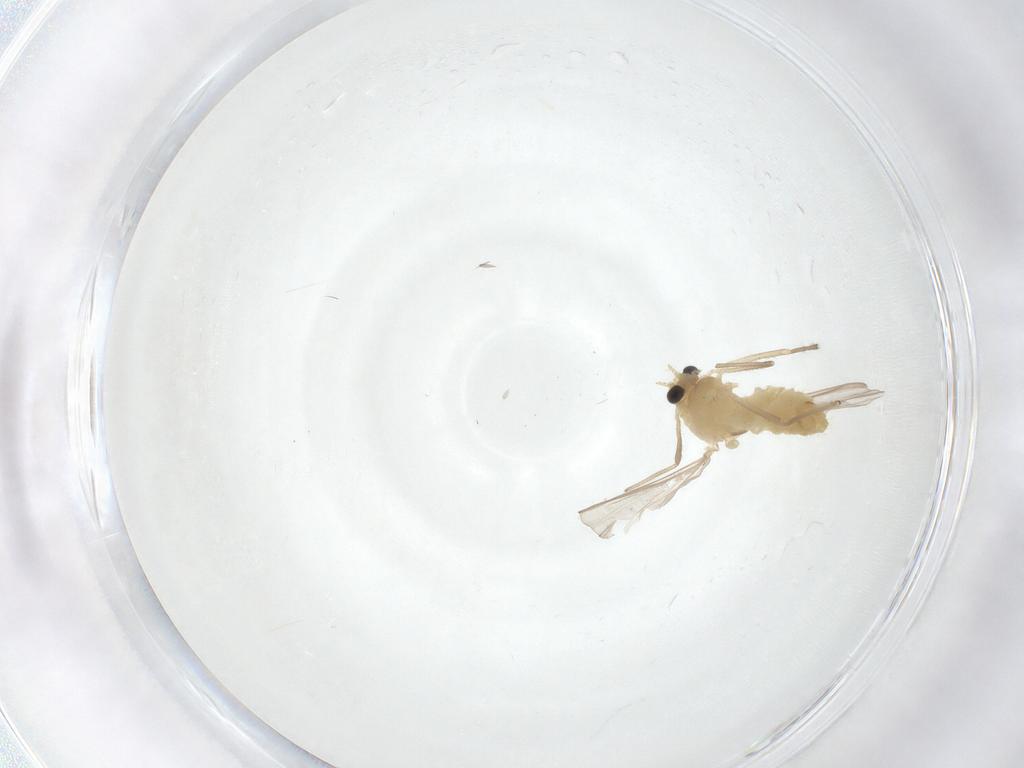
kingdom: Animalia
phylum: Arthropoda
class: Insecta
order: Diptera
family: Chironomidae
